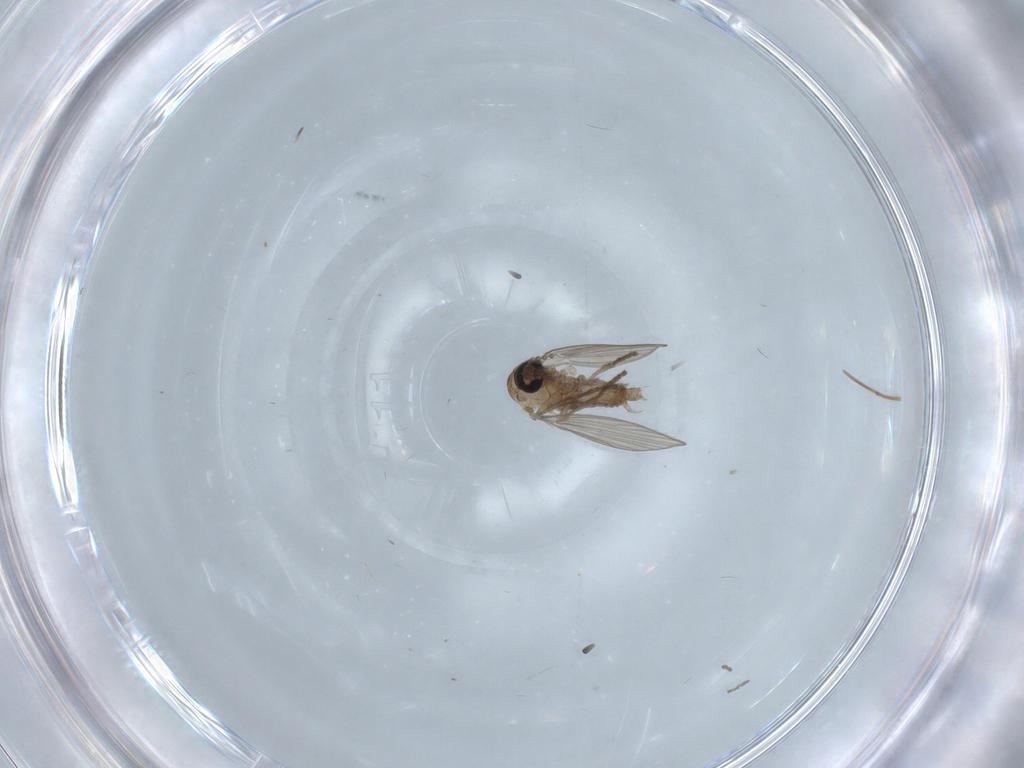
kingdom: Animalia
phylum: Arthropoda
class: Insecta
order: Diptera
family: Psychodidae
